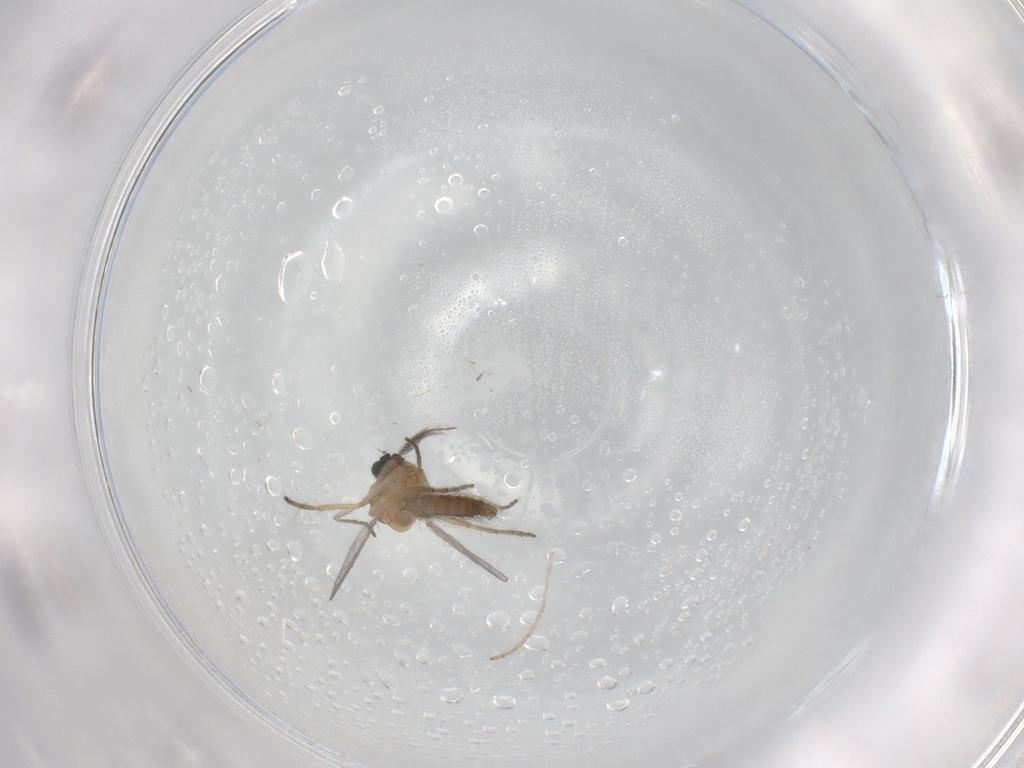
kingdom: Animalia
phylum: Arthropoda
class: Insecta
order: Diptera
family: Ceratopogonidae
